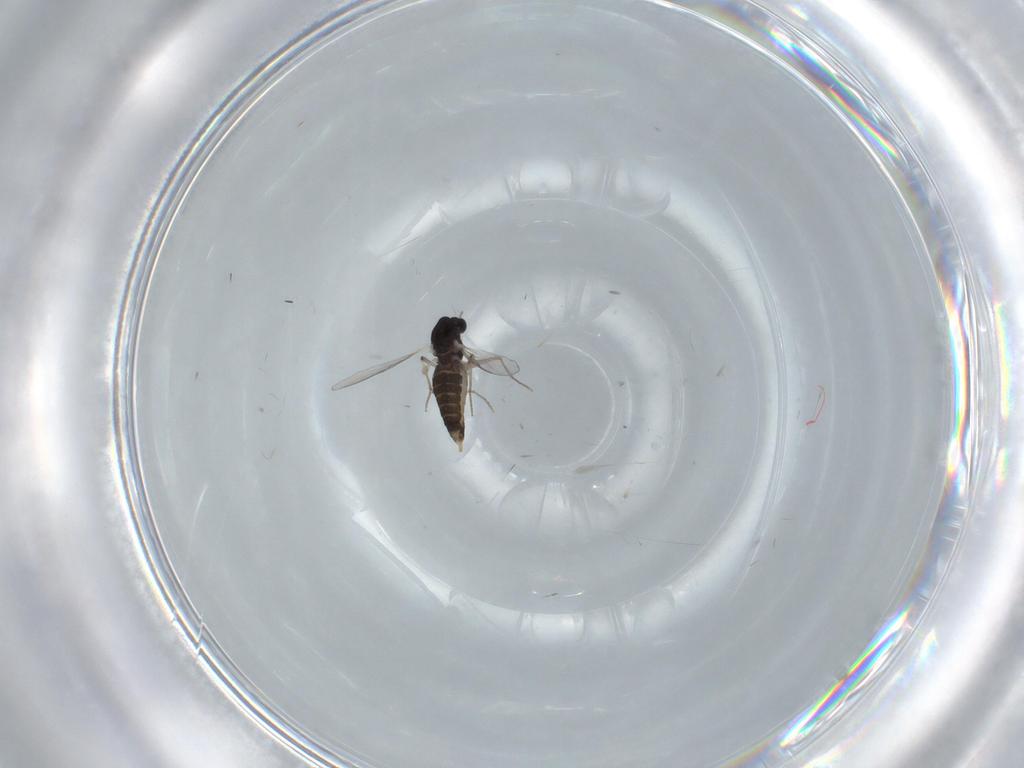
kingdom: Animalia
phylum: Arthropoda
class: Insecta
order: Diptera
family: Chironomidae
